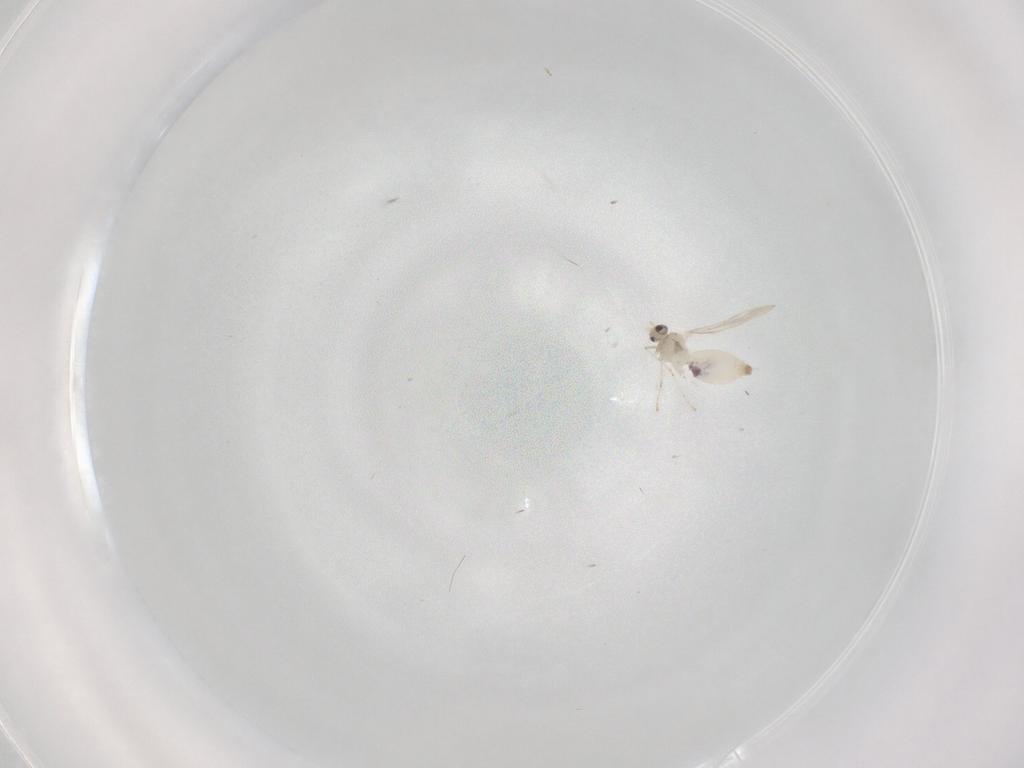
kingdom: Animalia
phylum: Arthropoda
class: Insecta
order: Diptera
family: Cecidomyiidae
